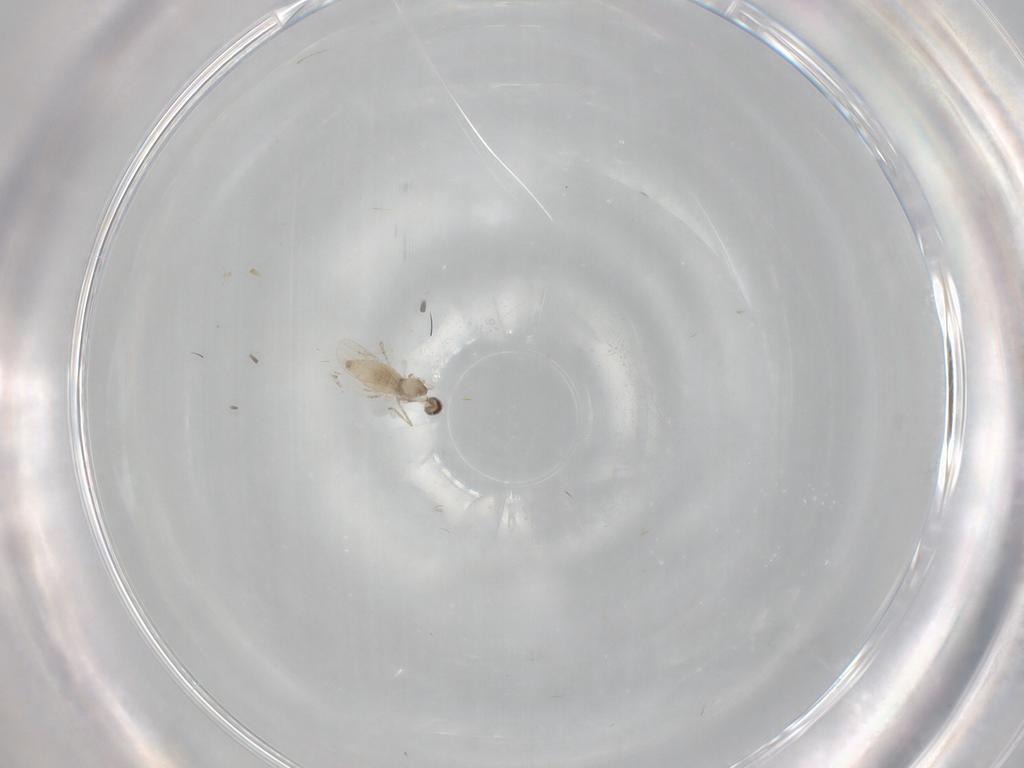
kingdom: Animalia
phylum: Arthropoda
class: Insecta
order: Diptera
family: Cecidomyiidae
